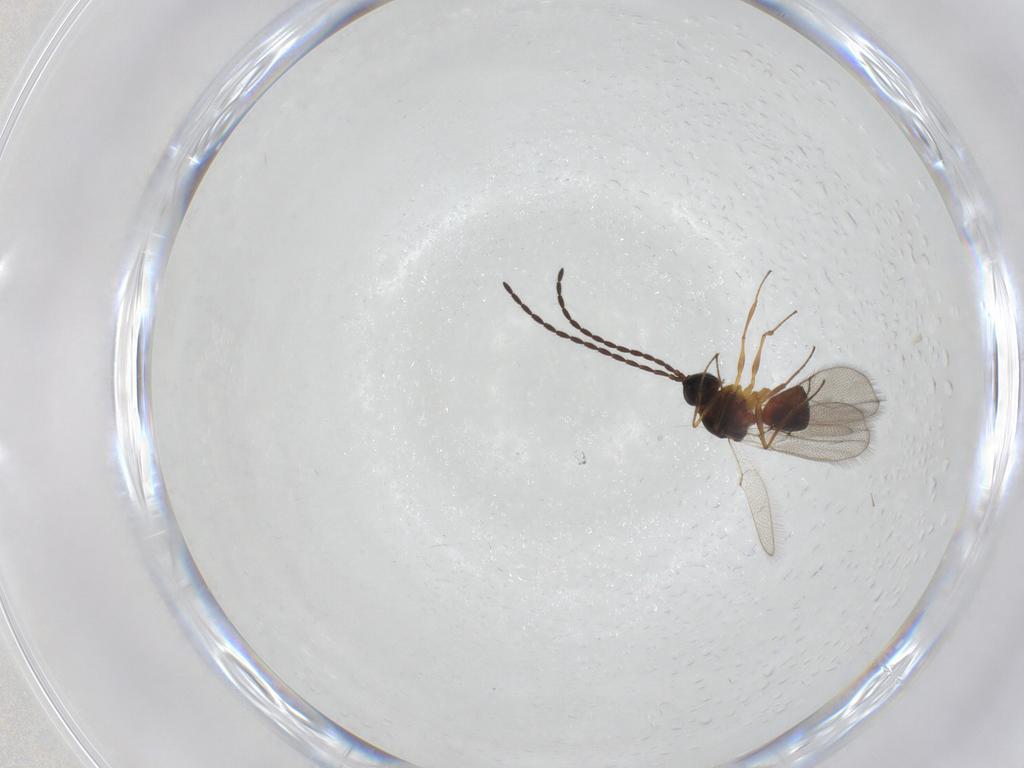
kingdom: Animalia
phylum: Arthropoda
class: Insecta
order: Hymenoptera
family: Figitidae
